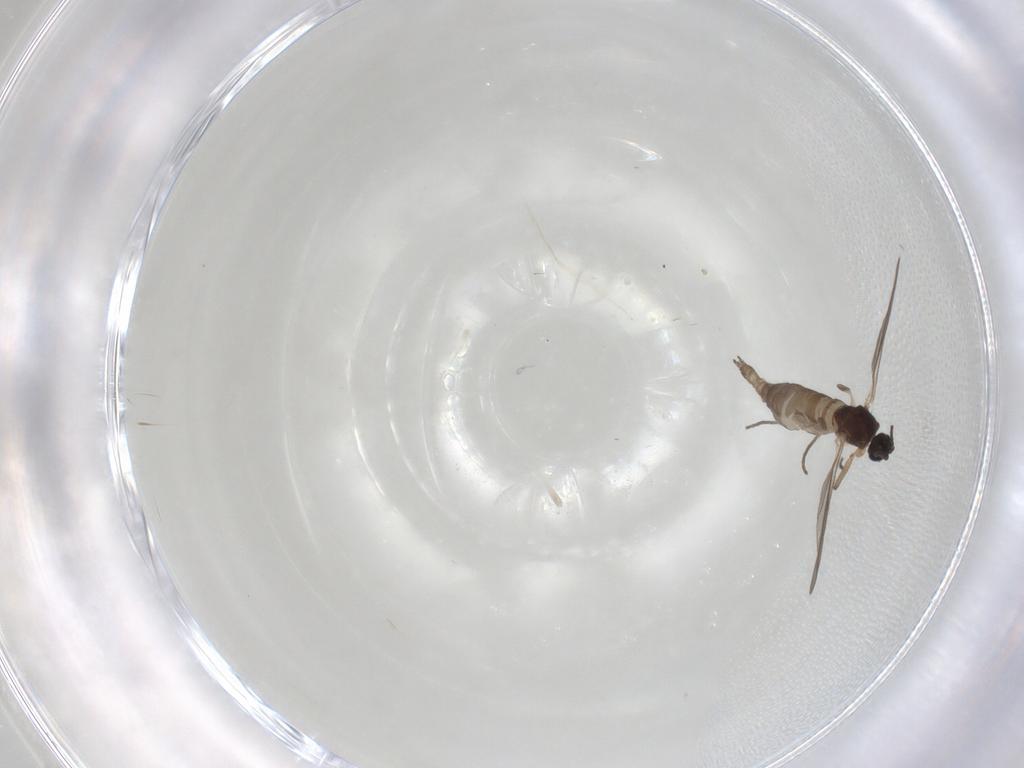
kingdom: Animalia
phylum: Arthropoda
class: Insecta
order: Diptera
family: Sciaridae
